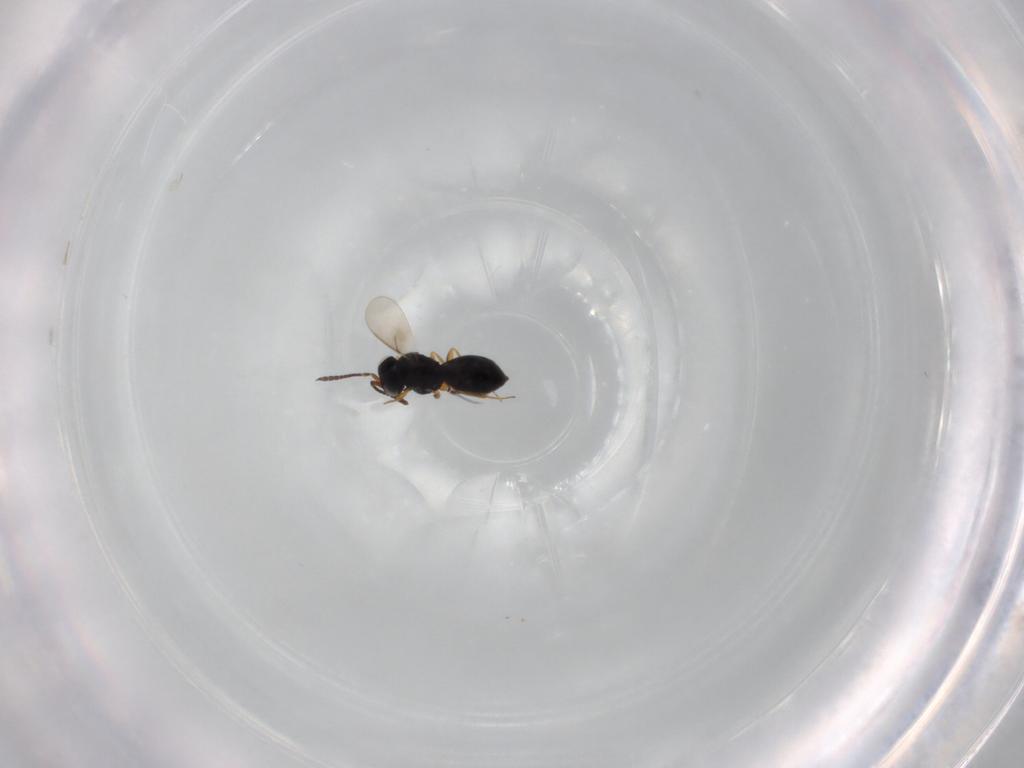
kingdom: Animalia
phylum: Arthropoda
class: Insecta
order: Hymenoptera
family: Scelionidae
